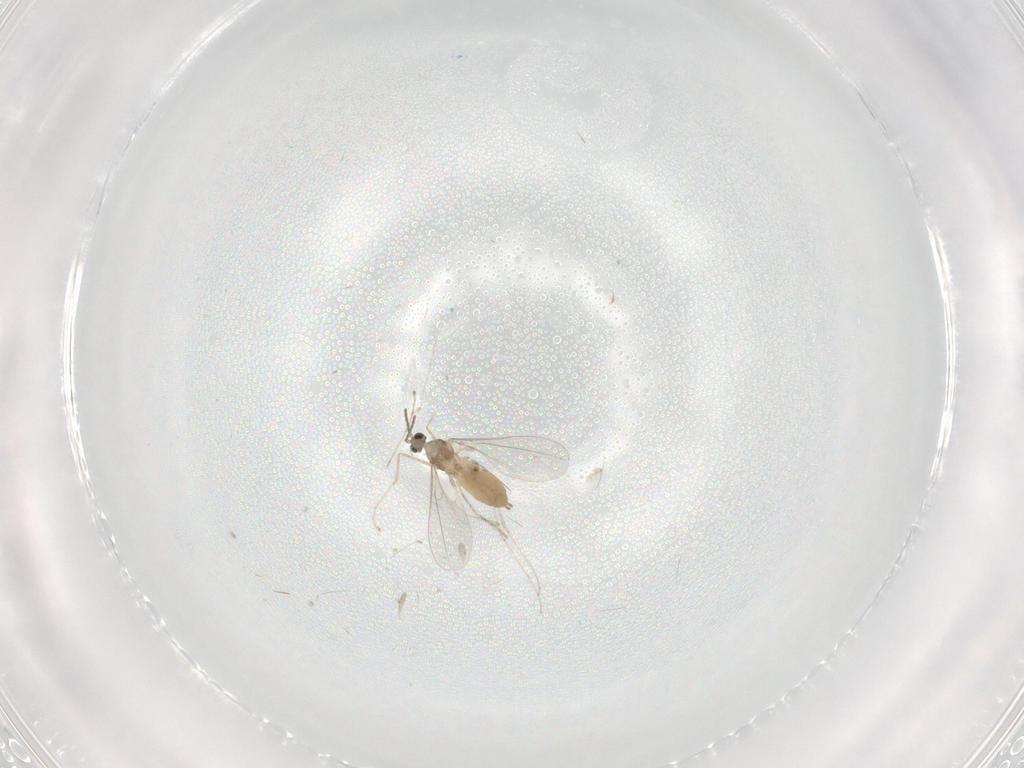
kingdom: Animalia
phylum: Arthropoda
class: Insecta
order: Diptera
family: Cecidomyiidae
